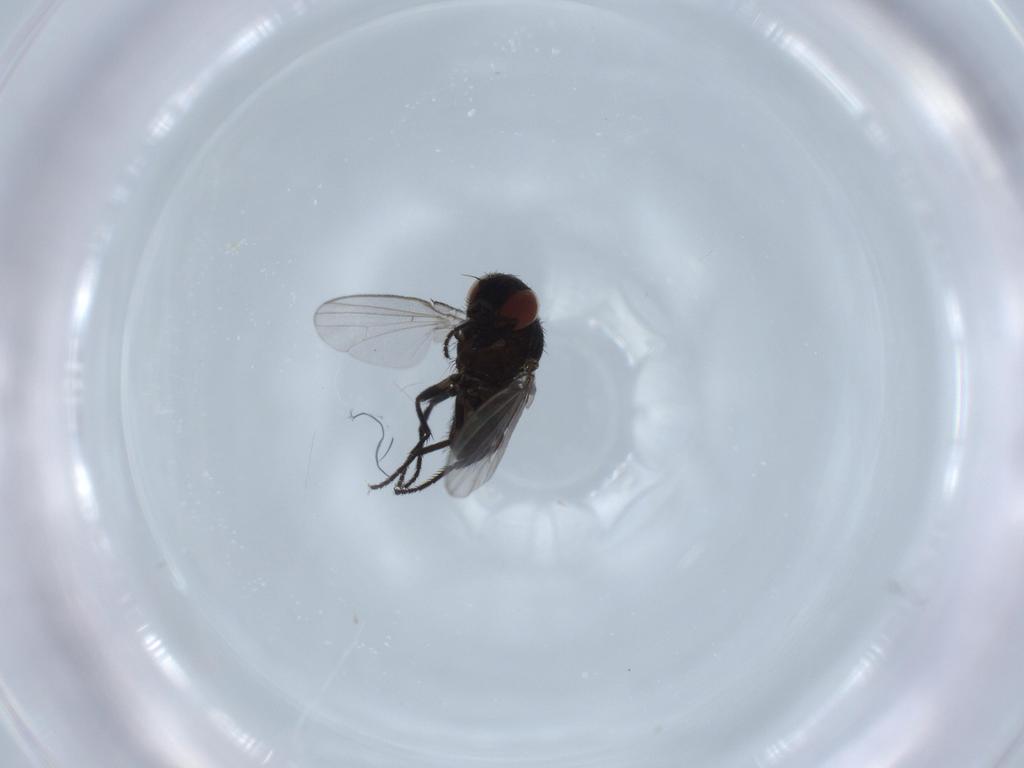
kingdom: Animalia
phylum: Arthropoda
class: Insecta
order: Diptera
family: Milichiidae
